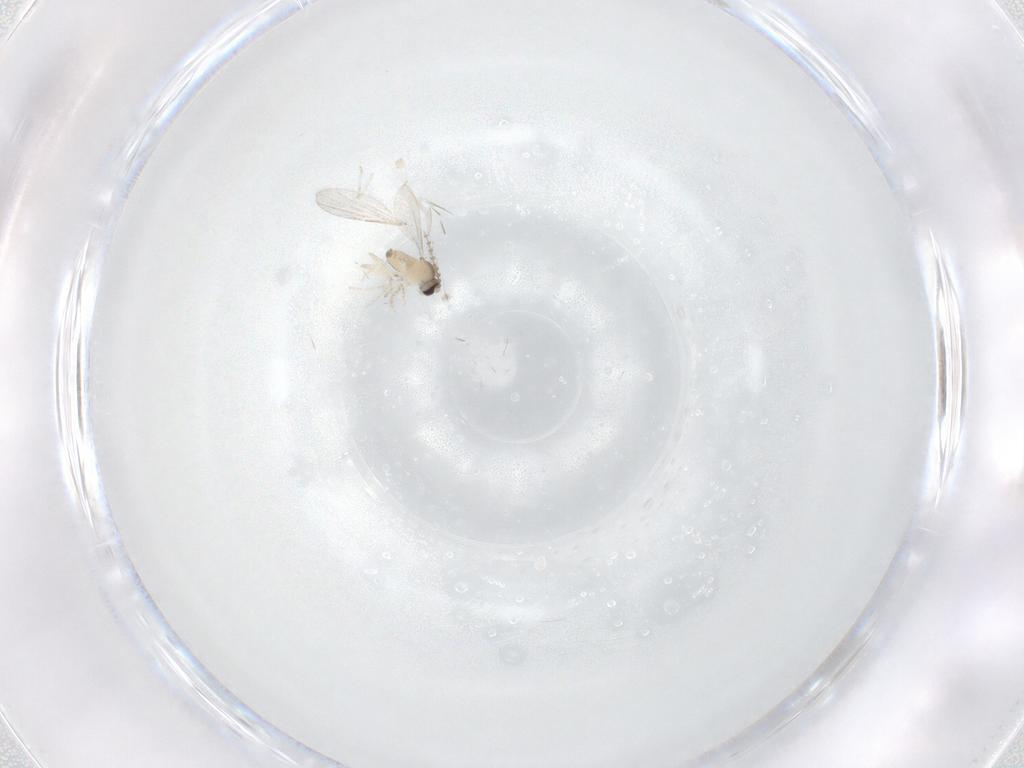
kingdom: Animalia
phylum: Arthropoda
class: Insecta
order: Diptera
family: Cecidomyiidae
